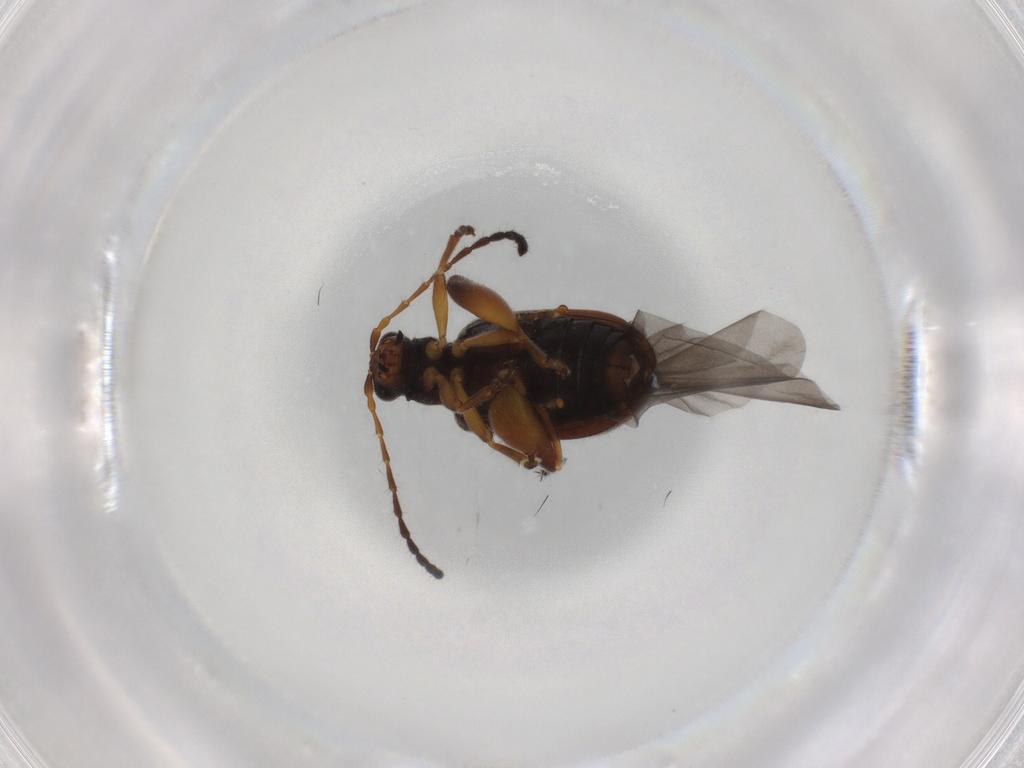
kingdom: Animalia
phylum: Arthropoda
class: Insecta
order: Coleoptera
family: Chrysomelidae
